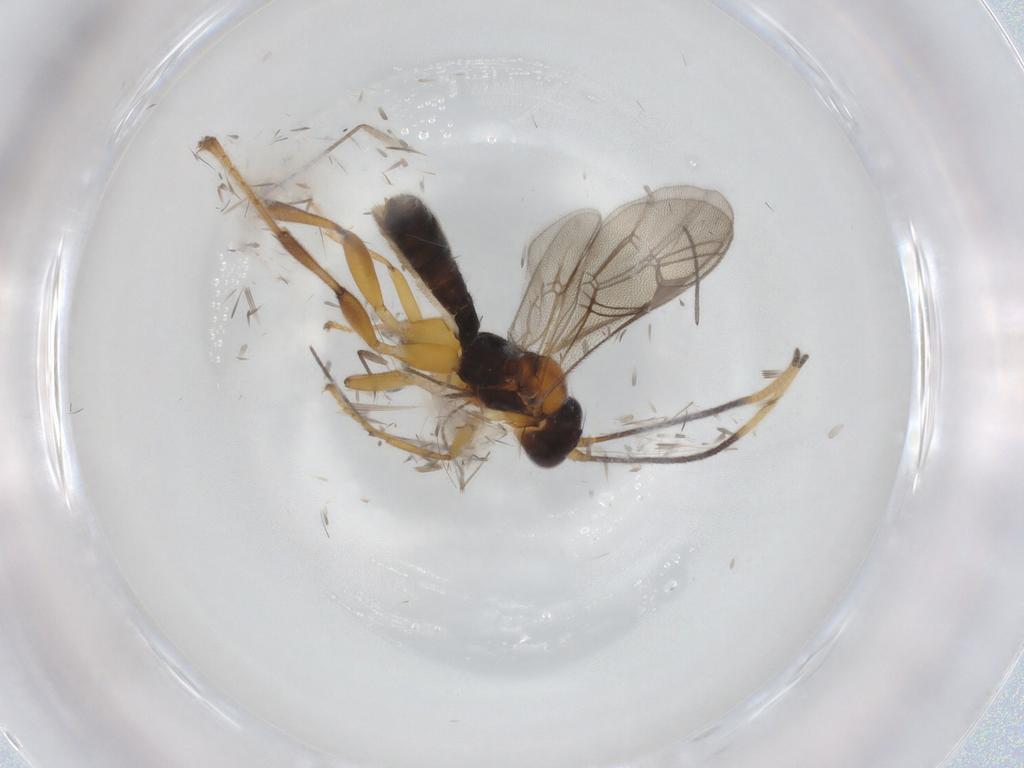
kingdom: Animalia
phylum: Arthropoda
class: Insecta
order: Hymenoptera
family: Ichneumonidae
